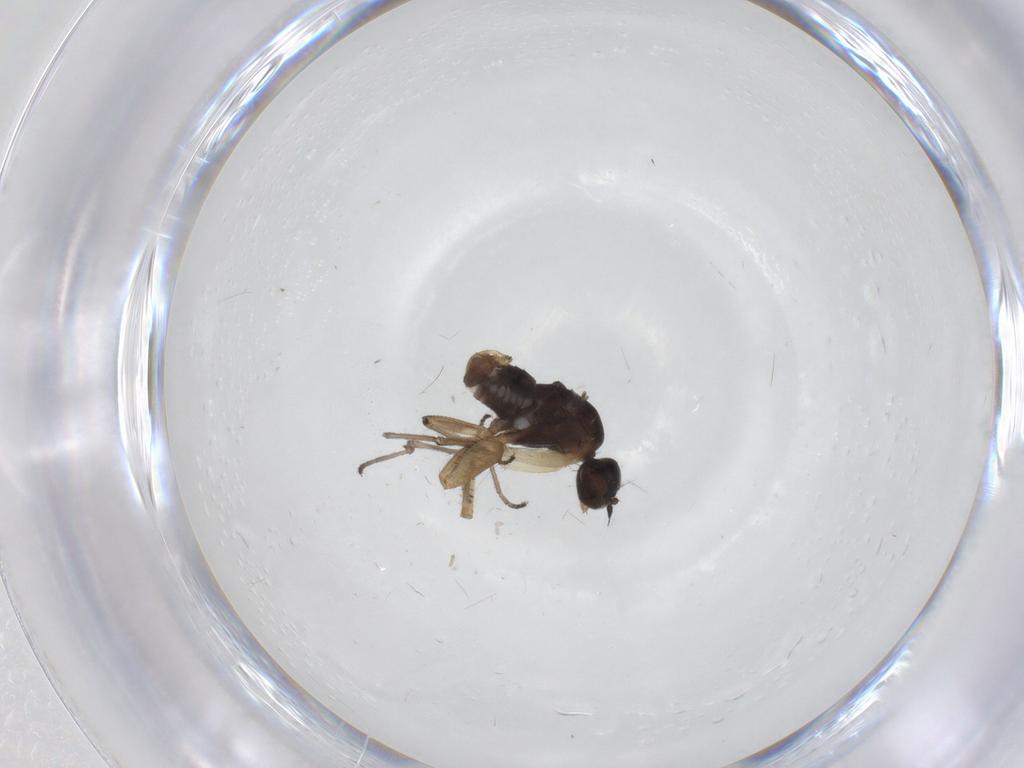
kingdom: Animalia
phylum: Arthropoda
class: Insecta
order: Diptera
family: Empididae
